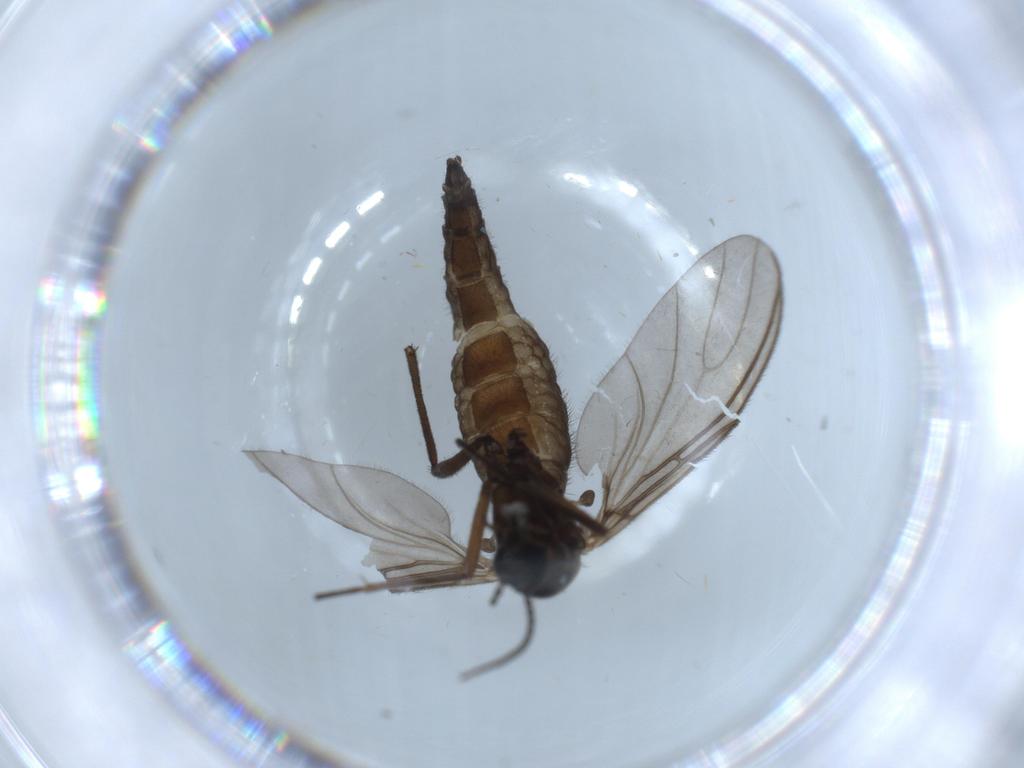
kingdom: Animalia
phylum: Arthropoda
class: Insecta
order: Diptera
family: Sciaridae
